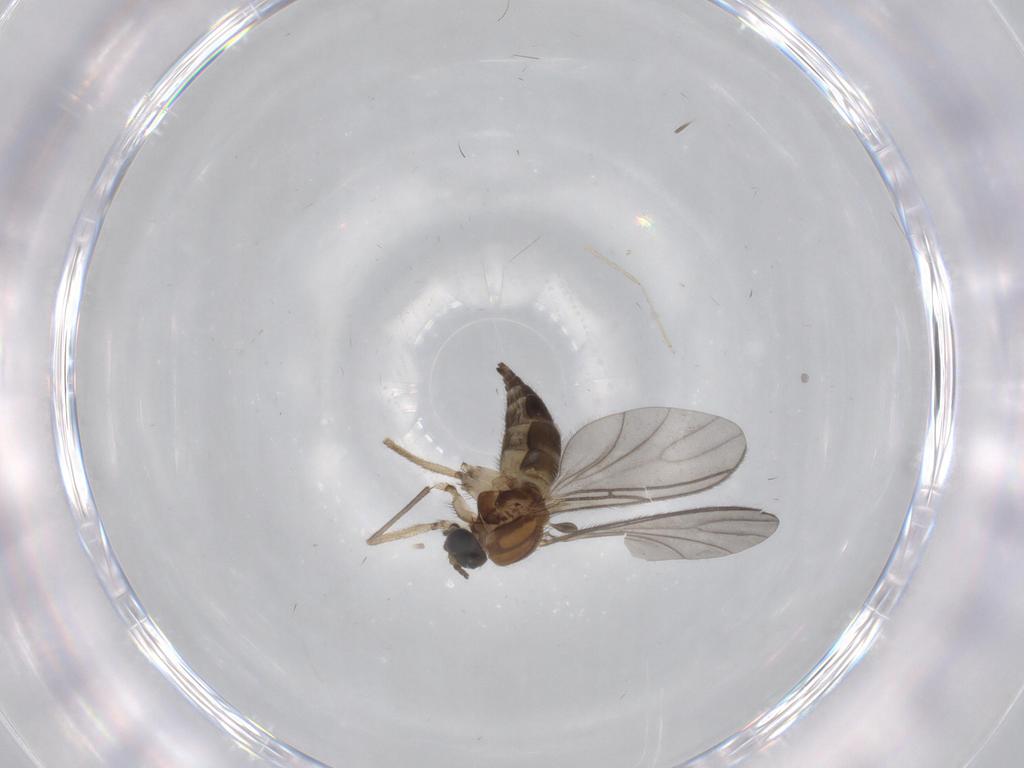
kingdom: Animalia
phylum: Arthropoda
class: Insecta
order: Diptera
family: Sciaridae
